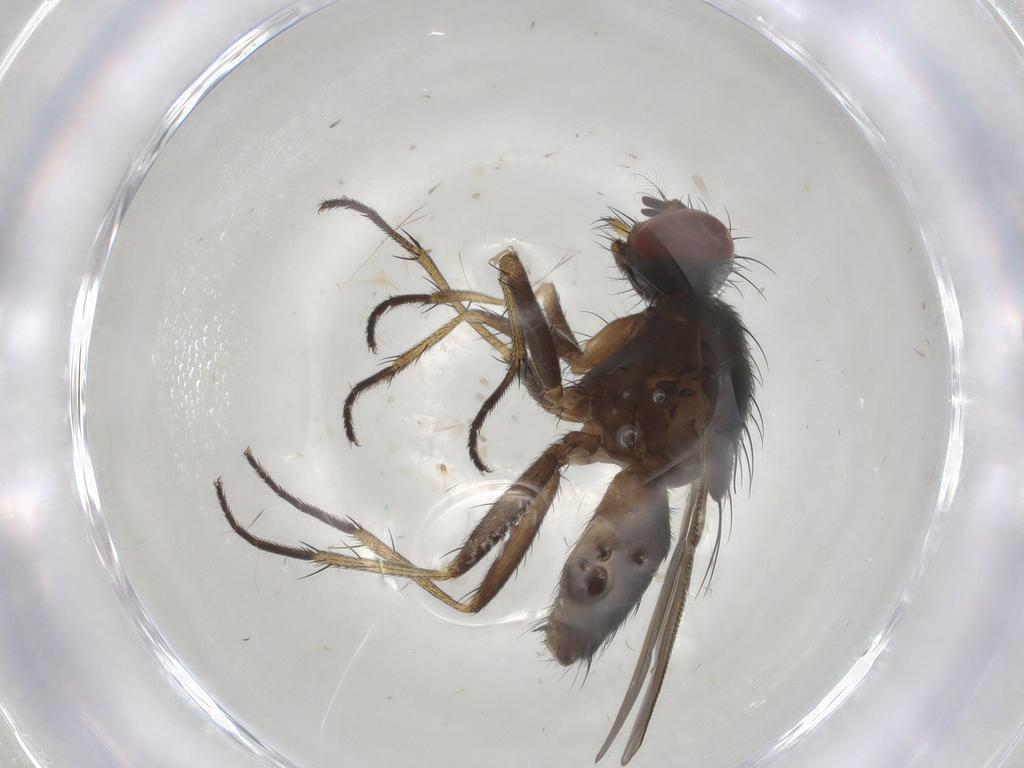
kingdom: Animalia
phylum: Arthropoda
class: Insecta
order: Diptera
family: Muscidae
